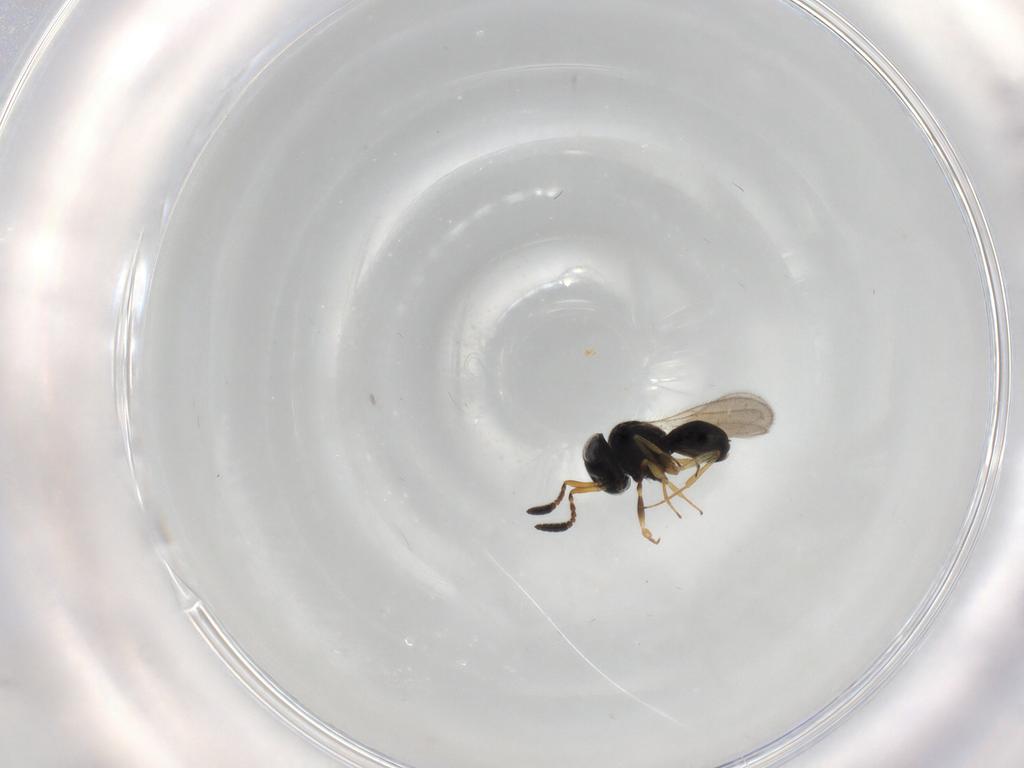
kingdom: Animalia
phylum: Arthropoda
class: Insecta
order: Hymenoptera
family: Scelionidae
